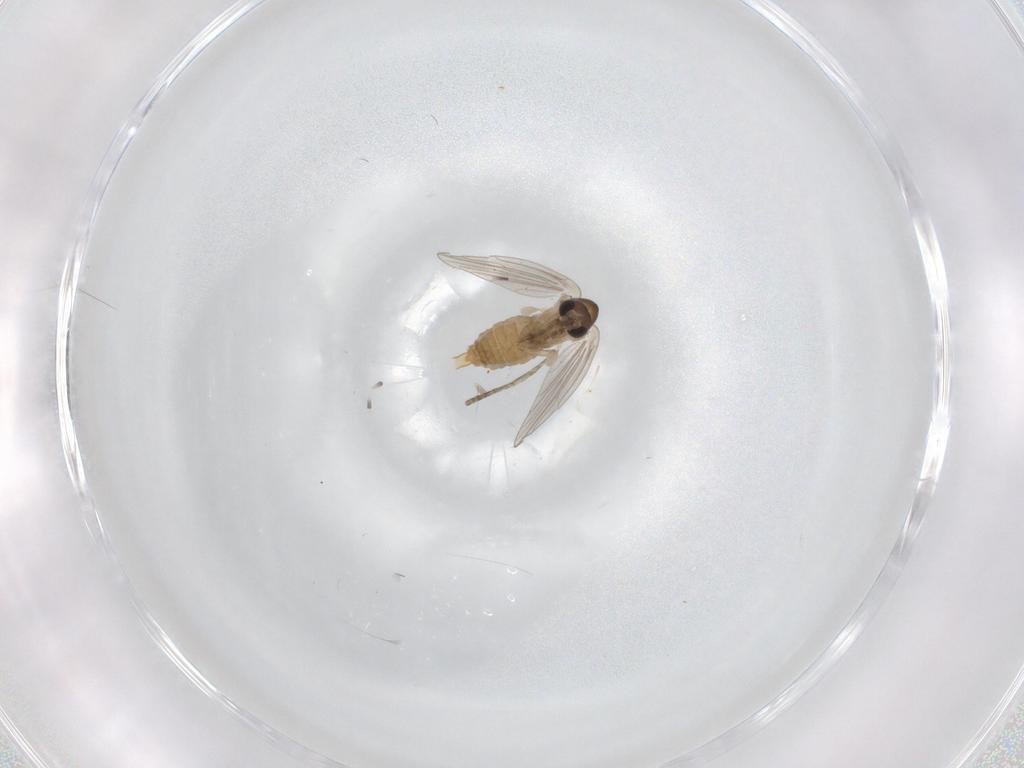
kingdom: Animalia
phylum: Arthropoda
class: Insecta
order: Diptera
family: Psychodidae
